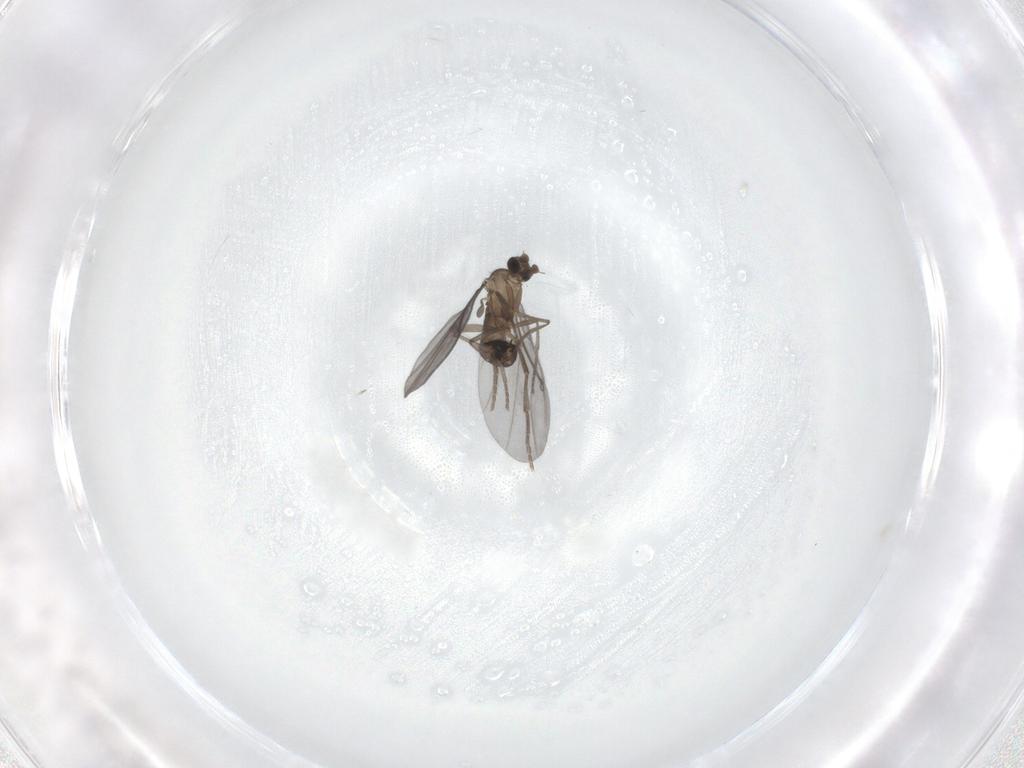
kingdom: Animalia
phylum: Arthropoda
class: Insecta
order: Diptera
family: Phoridae
